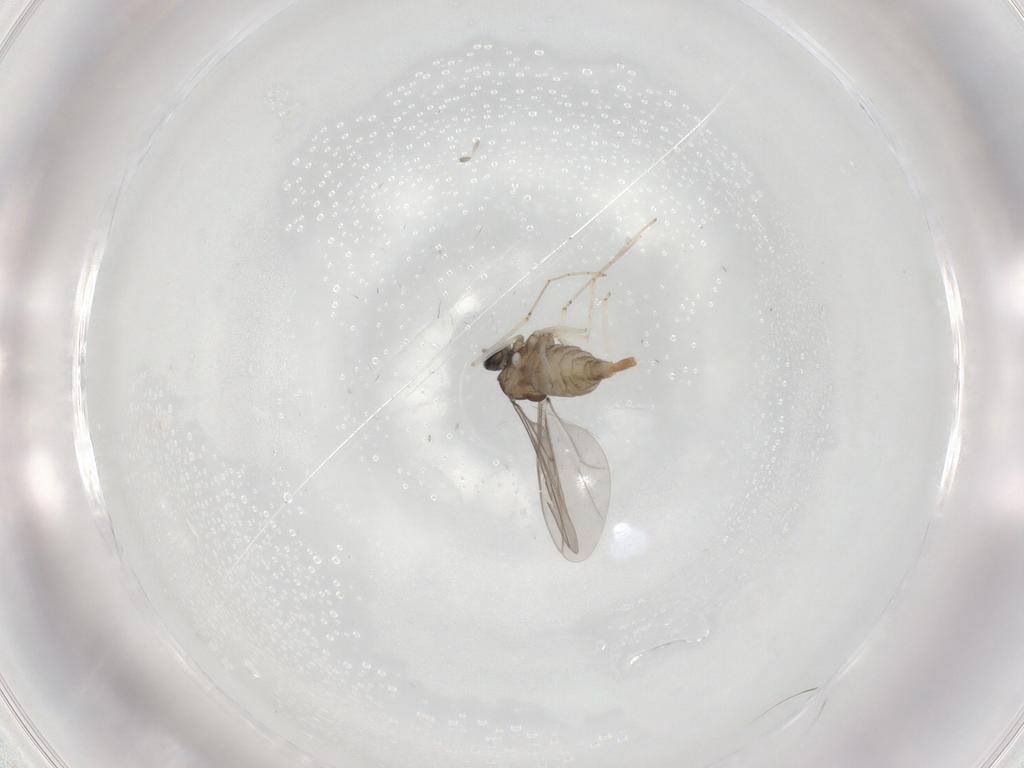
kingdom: Animalia
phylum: Arthropoda
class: Insecta
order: Diptera
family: Cecidomyiidae
